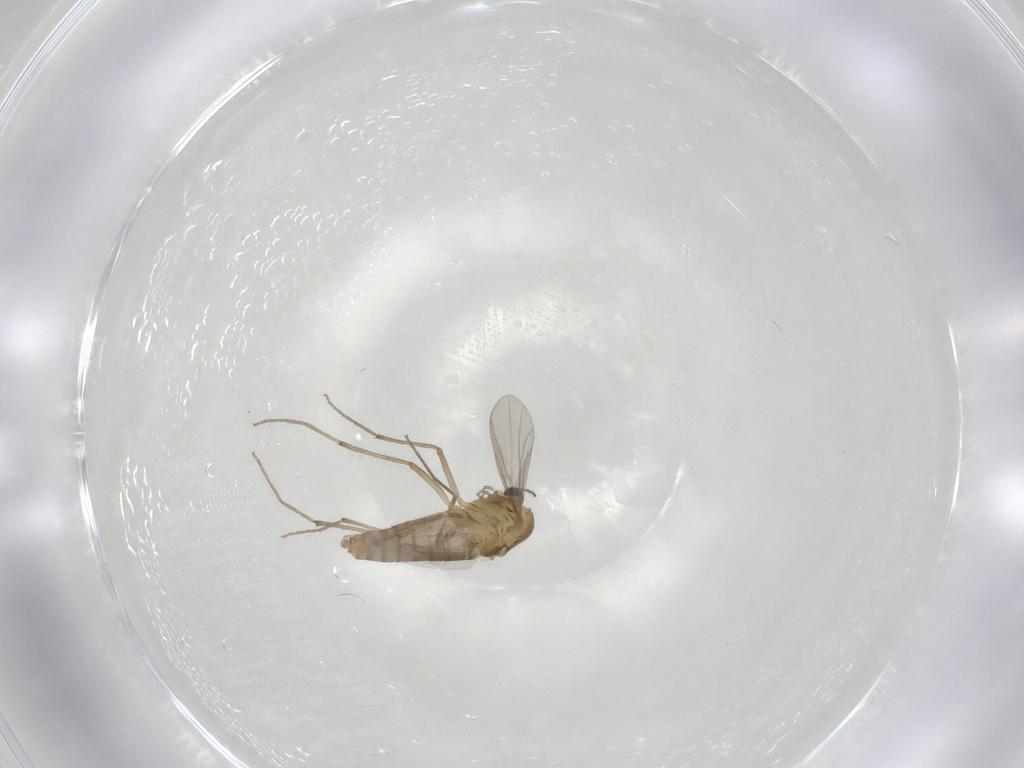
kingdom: Animalia
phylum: Arthropoda
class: Insecta
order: Diptera
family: Chironomidae
